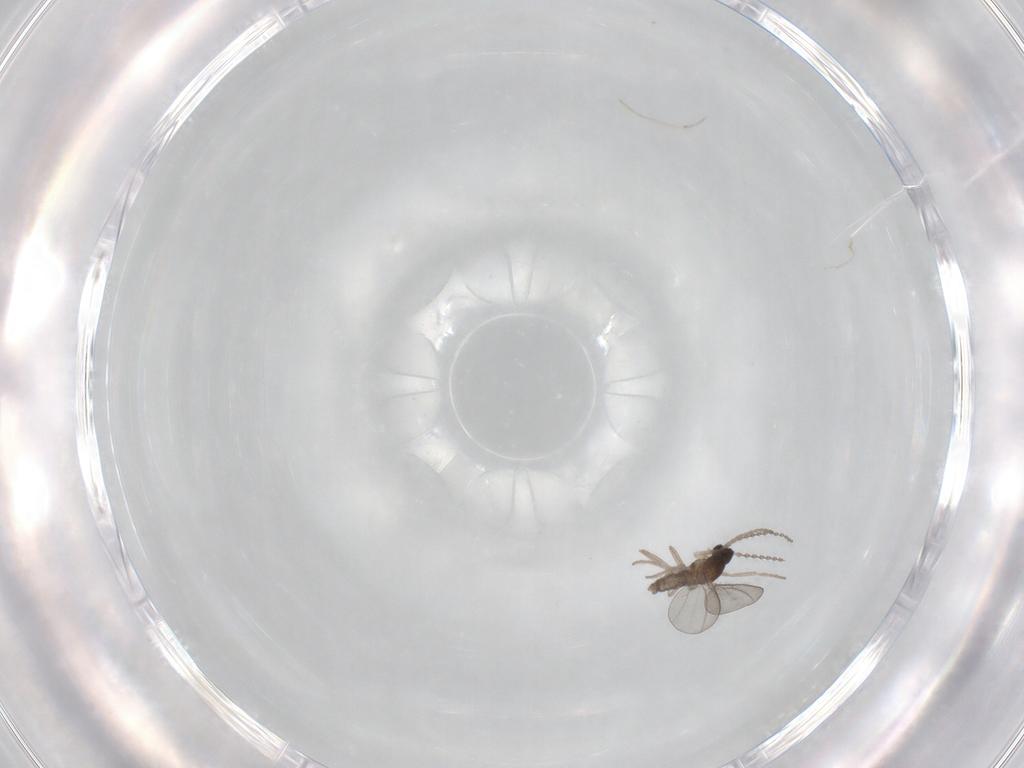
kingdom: Animalia
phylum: Arthropoda
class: Insecta
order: Diptera
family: Cecidomyiidae
